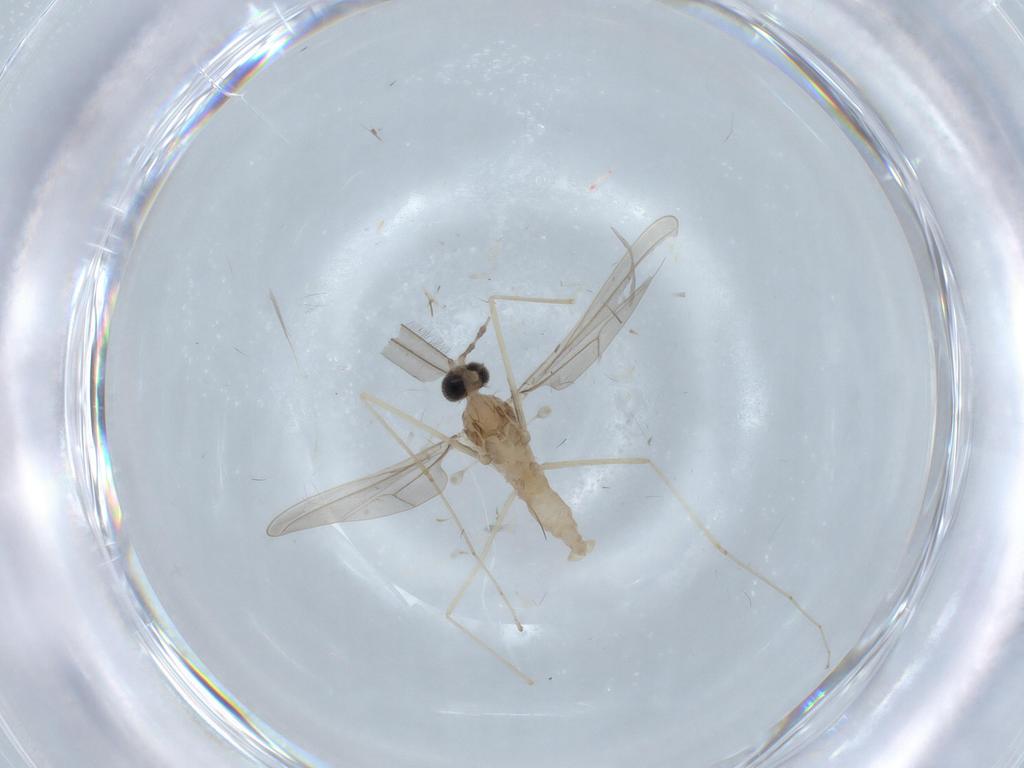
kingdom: Animalia
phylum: Arthropoda
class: Insecta
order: Diptera
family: Cecidomyiidae
